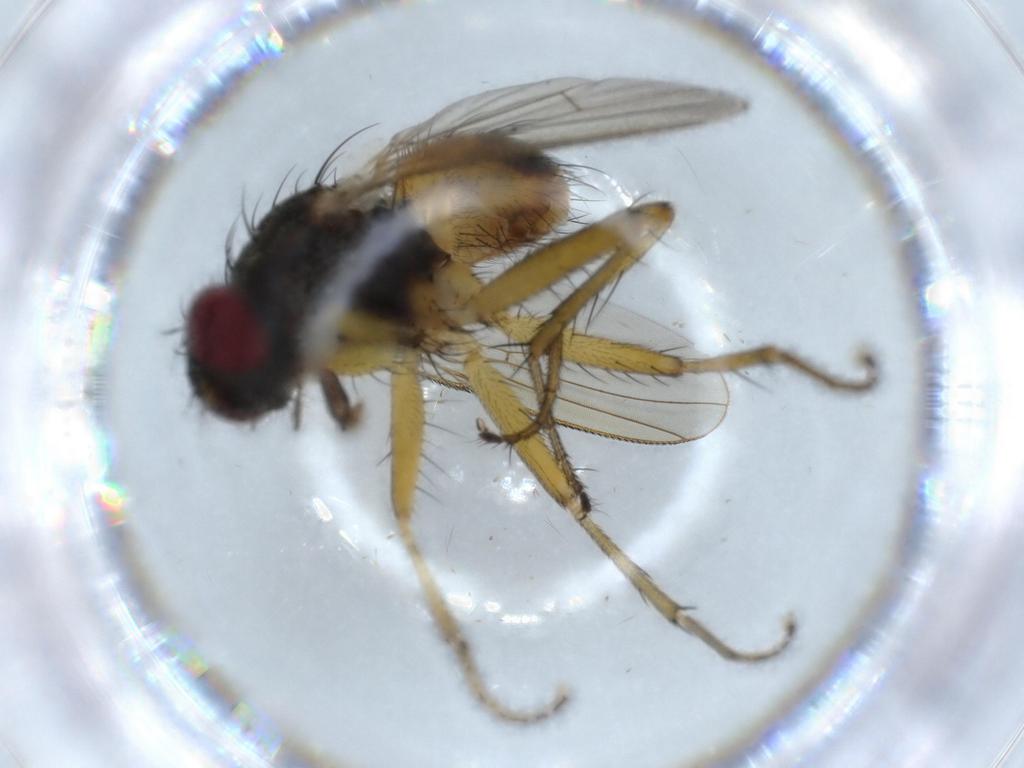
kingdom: Animalia
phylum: Arthropoda
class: Insecta
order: Diptera
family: Muscidae
